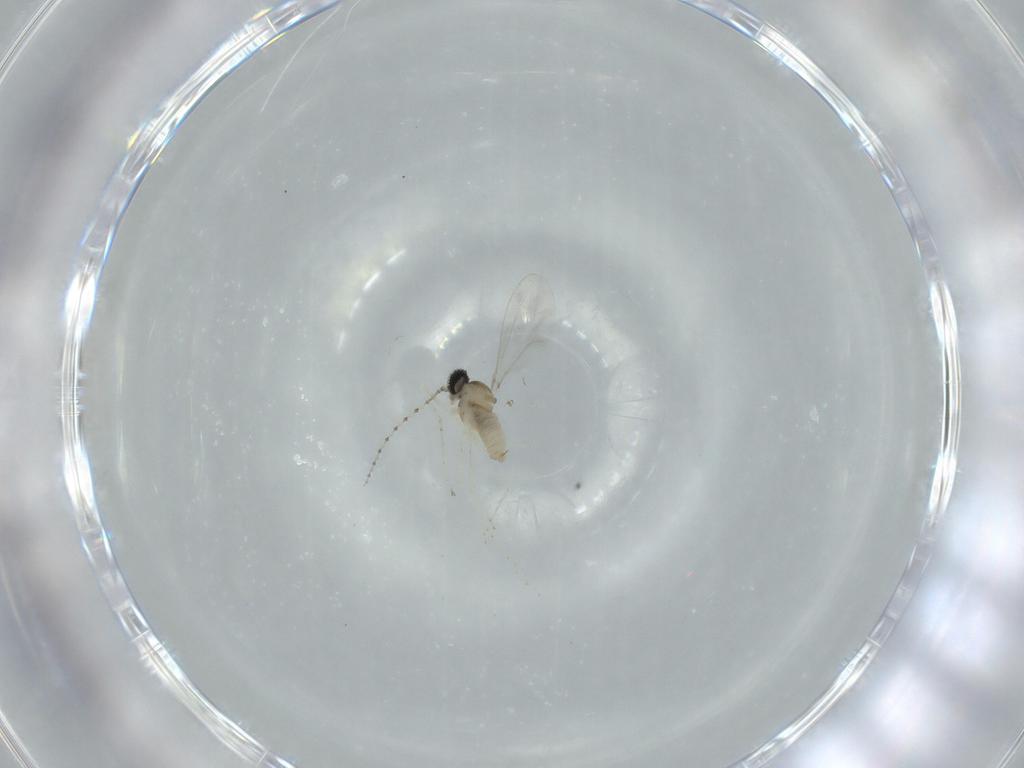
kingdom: Animalia
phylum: Arthropoda
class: Insecta
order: Diptera
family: Cecidomyiidae
